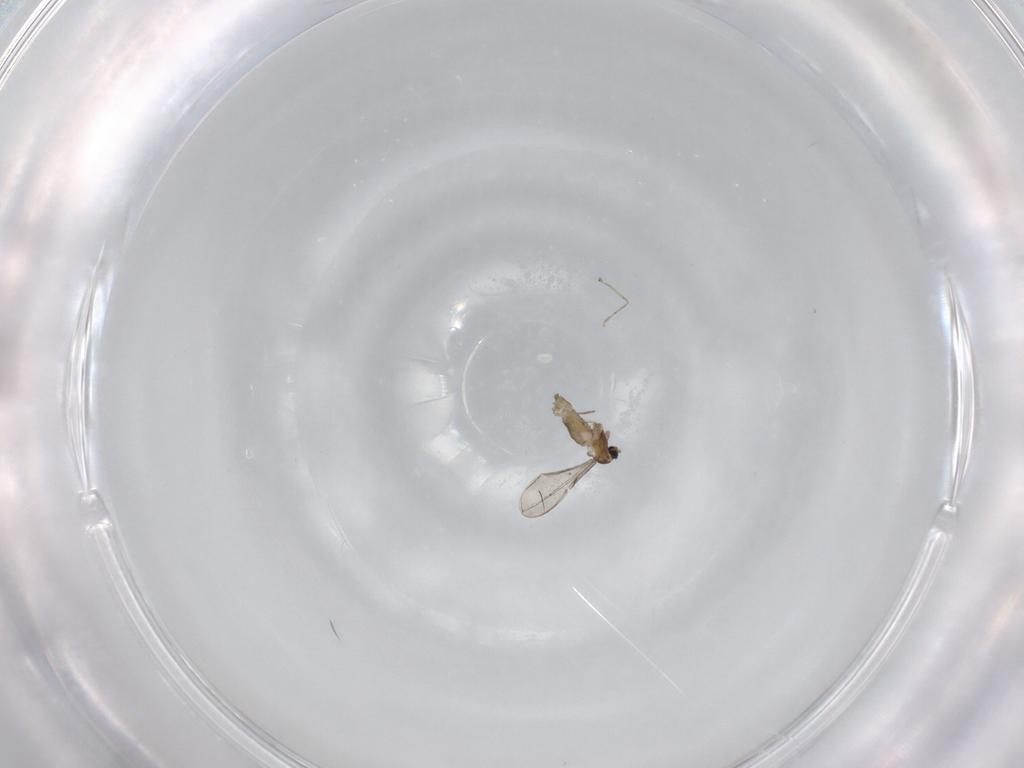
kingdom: Animalia
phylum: Arthropoda
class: Insecta
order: Diptera
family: Cecidomyiidae
